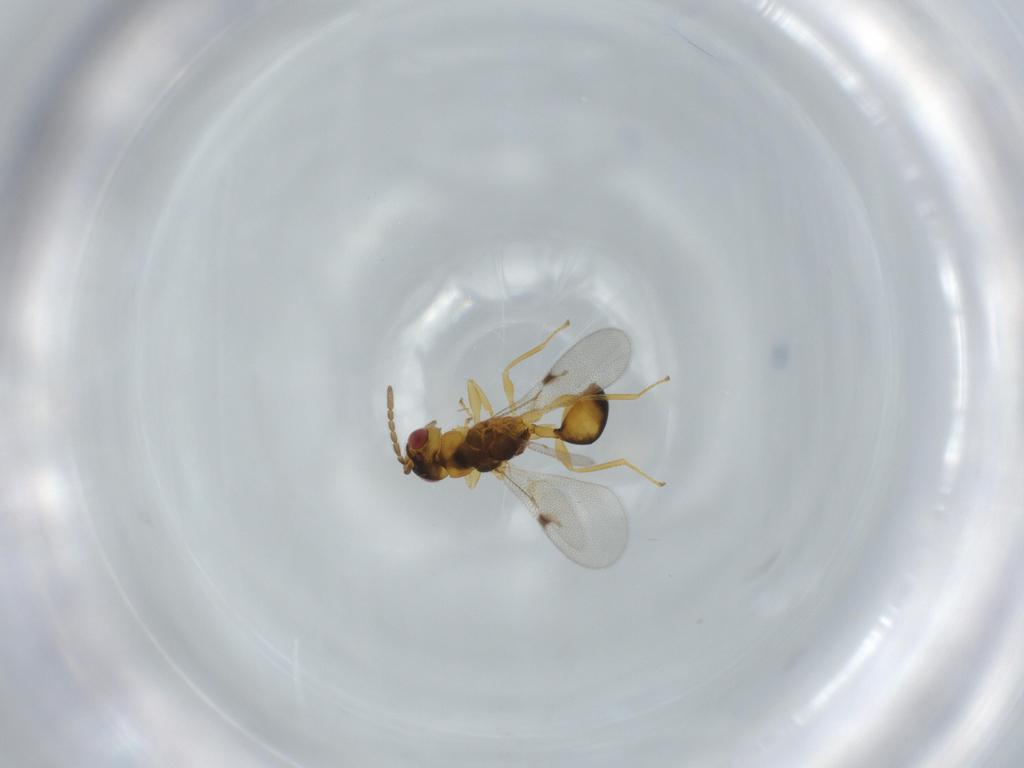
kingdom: Animalia
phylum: Arthropoda
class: Insecta
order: Hymenoptera
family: Eurytomidae
